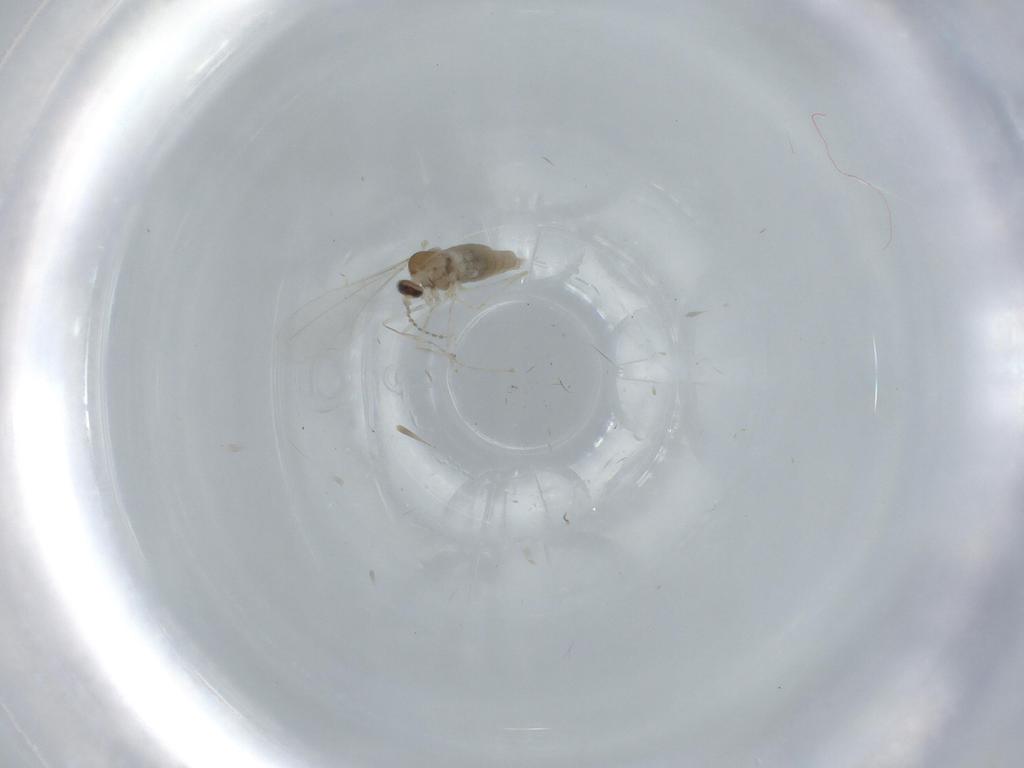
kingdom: Animalia
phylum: Arthropoda
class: Insecta
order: Diptera
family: Cecidomyiidae
